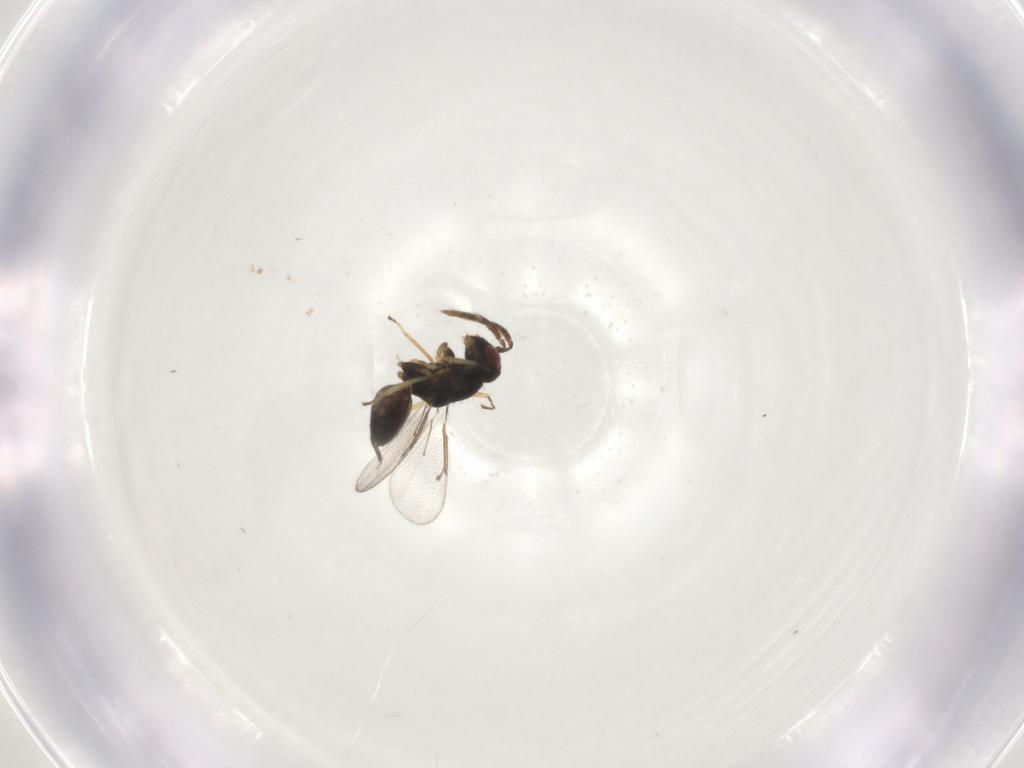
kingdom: Animalia
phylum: Arthropoda
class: Insecta
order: Hymenoptera
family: Eulophidae
